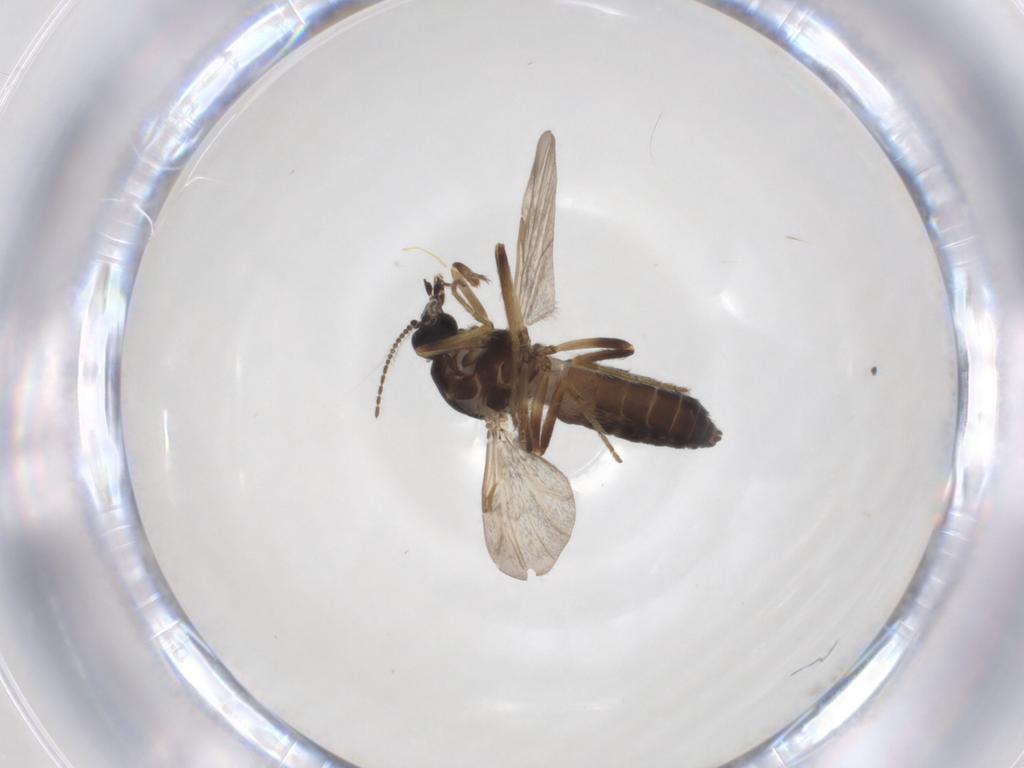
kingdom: Animalia
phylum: Arthropoda
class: Insecta
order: Diptera
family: Ceratopogonidae
